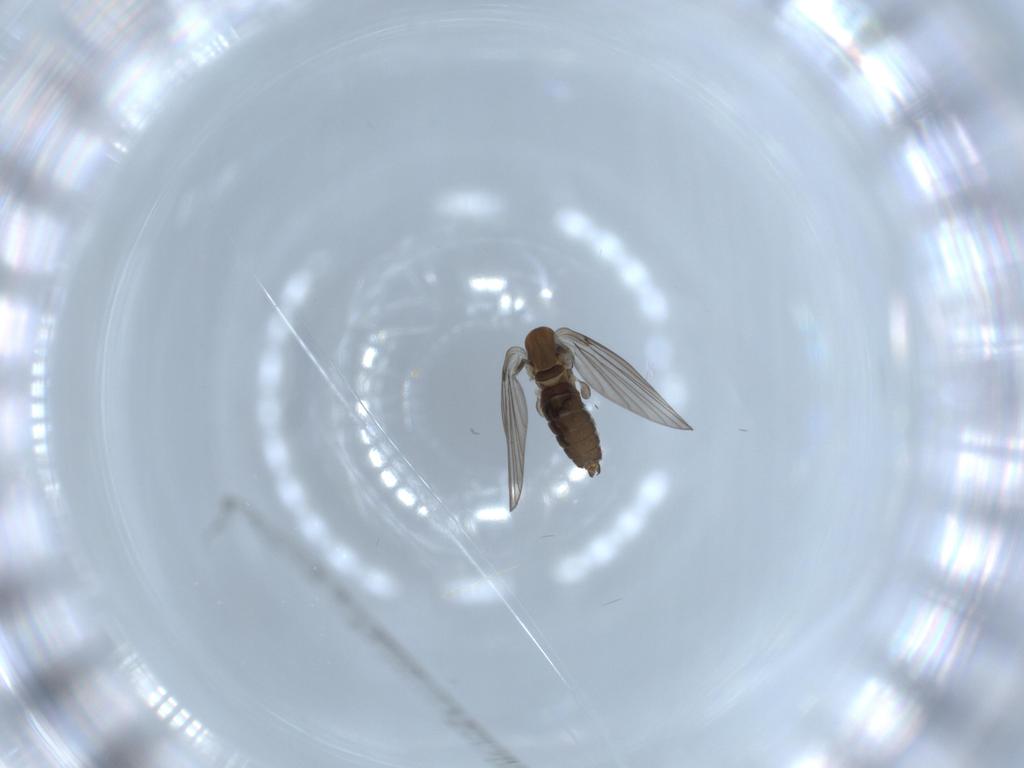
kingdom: Animalia
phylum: Arthropoda
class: Insecta
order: Diptera
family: Psychodidae
